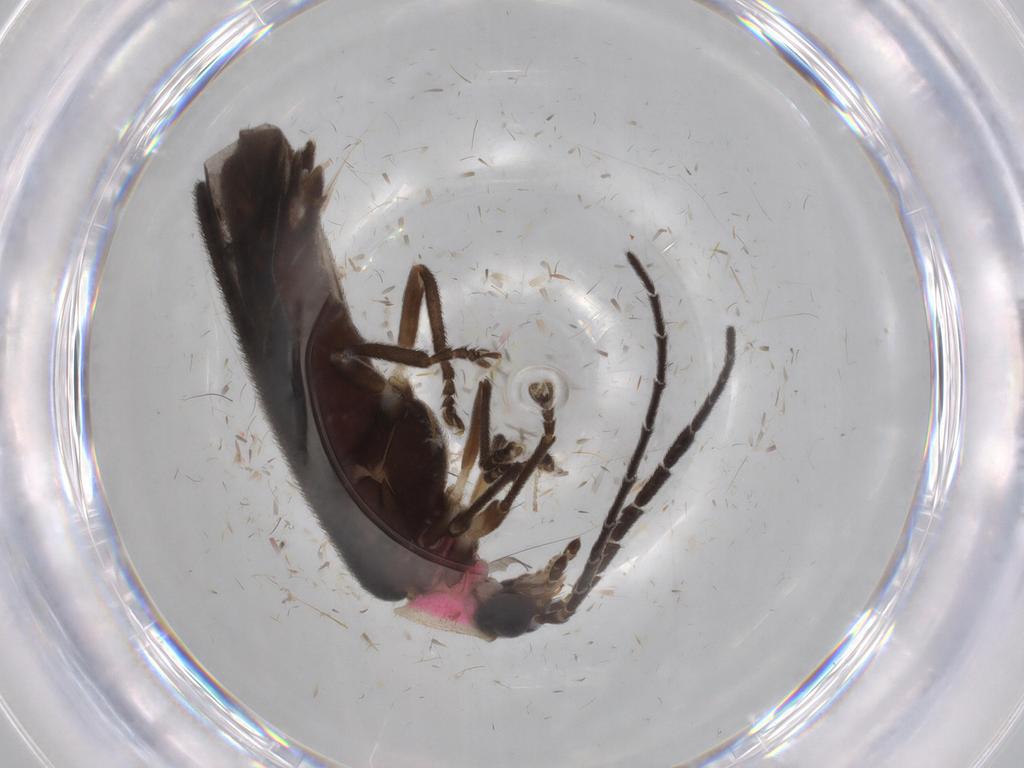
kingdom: Animalia
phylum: Arthropoda
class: Insecta
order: Coleoptera
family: Lampyridae
